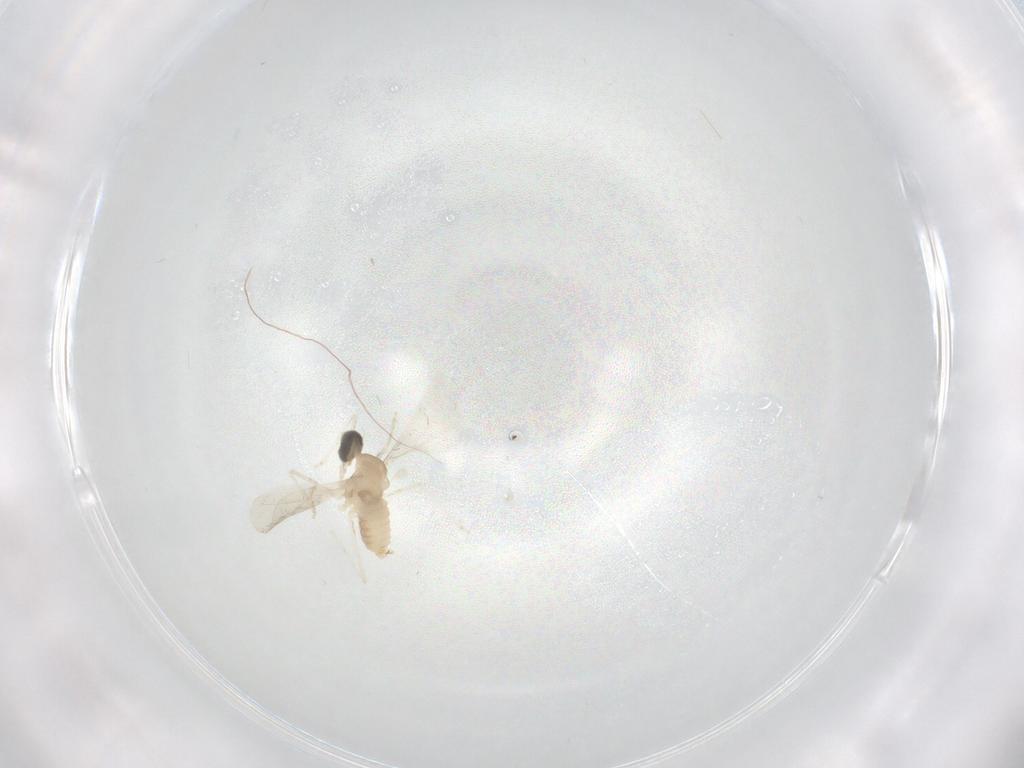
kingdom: Animalia
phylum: Arthropoda
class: Insecta
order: Diptera
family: Cecidomyiidae
